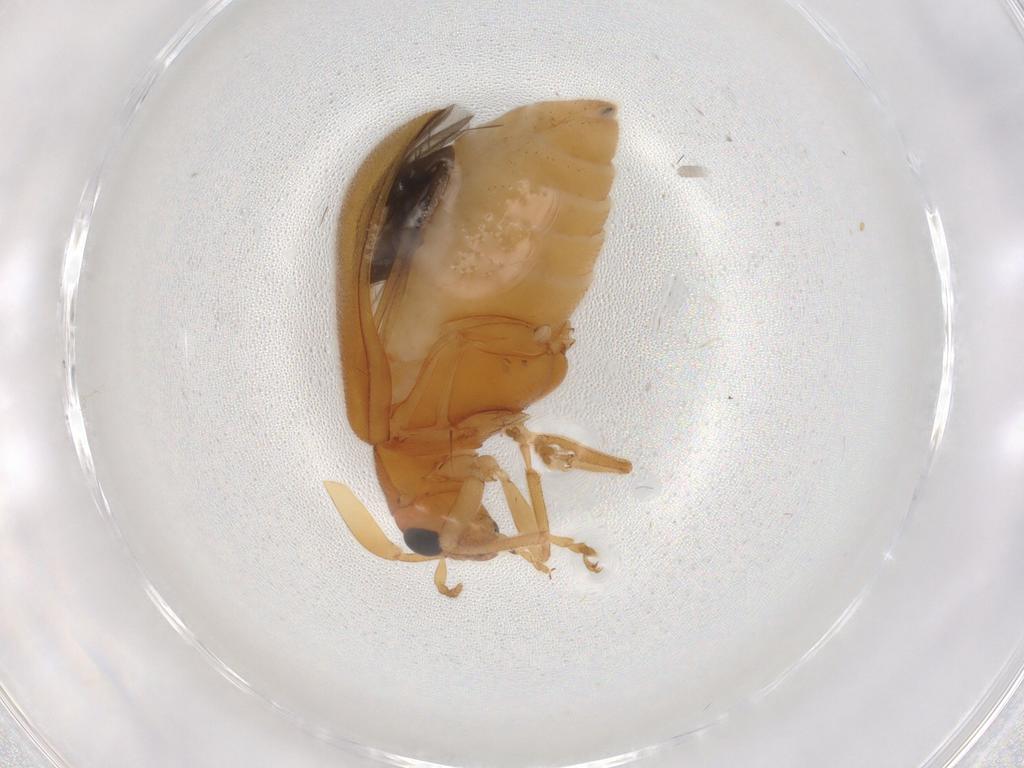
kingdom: Animalia
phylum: Arthropoda
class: Insecta
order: Coleoptera
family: Chrysomelidae
